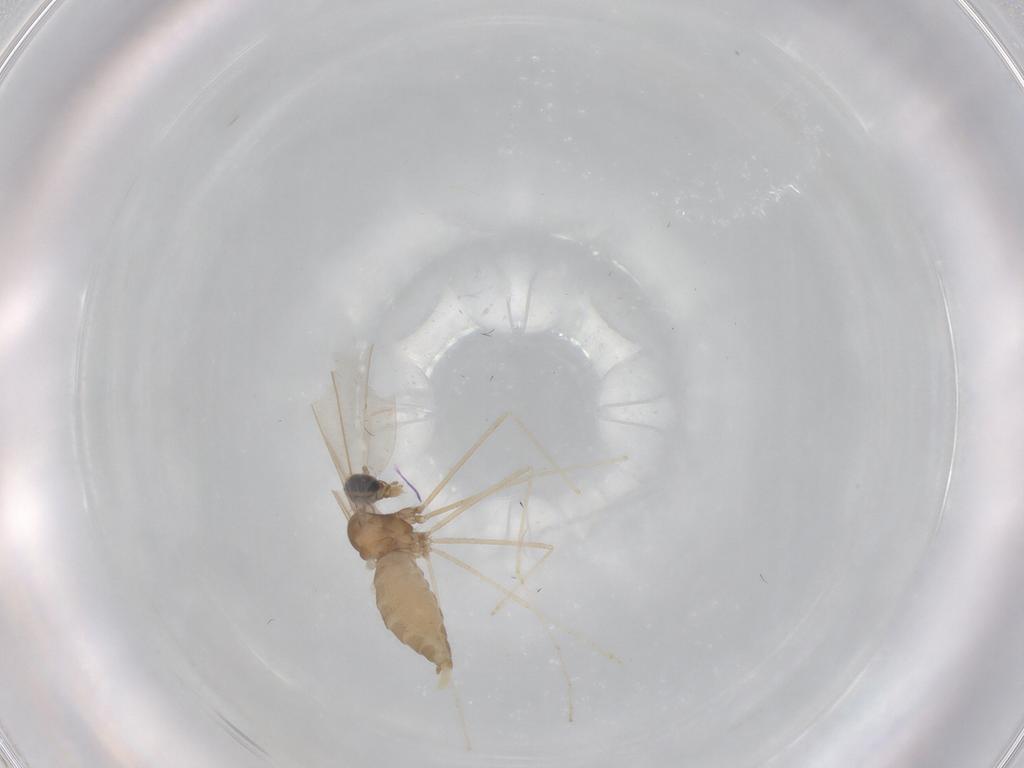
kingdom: Animalia
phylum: Arthropoda
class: Insecta
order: Diptera
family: Cecidomyiidae
